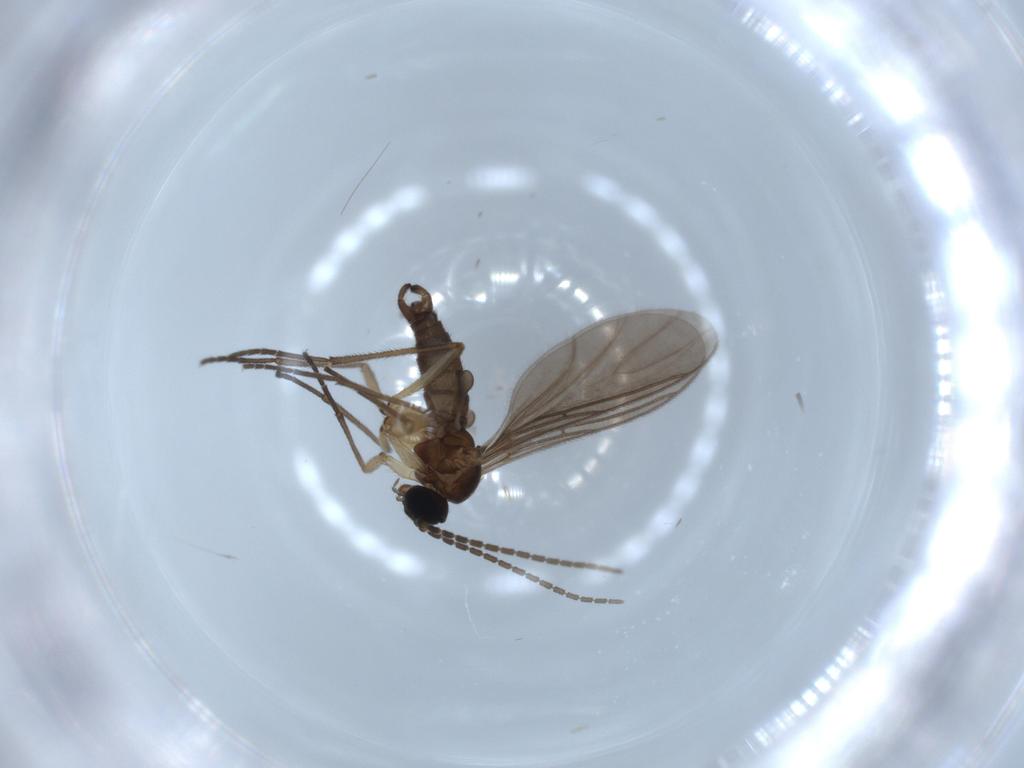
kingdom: Animalia
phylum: Arthropoda
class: Insecta
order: Diptera
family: Sciaridae
